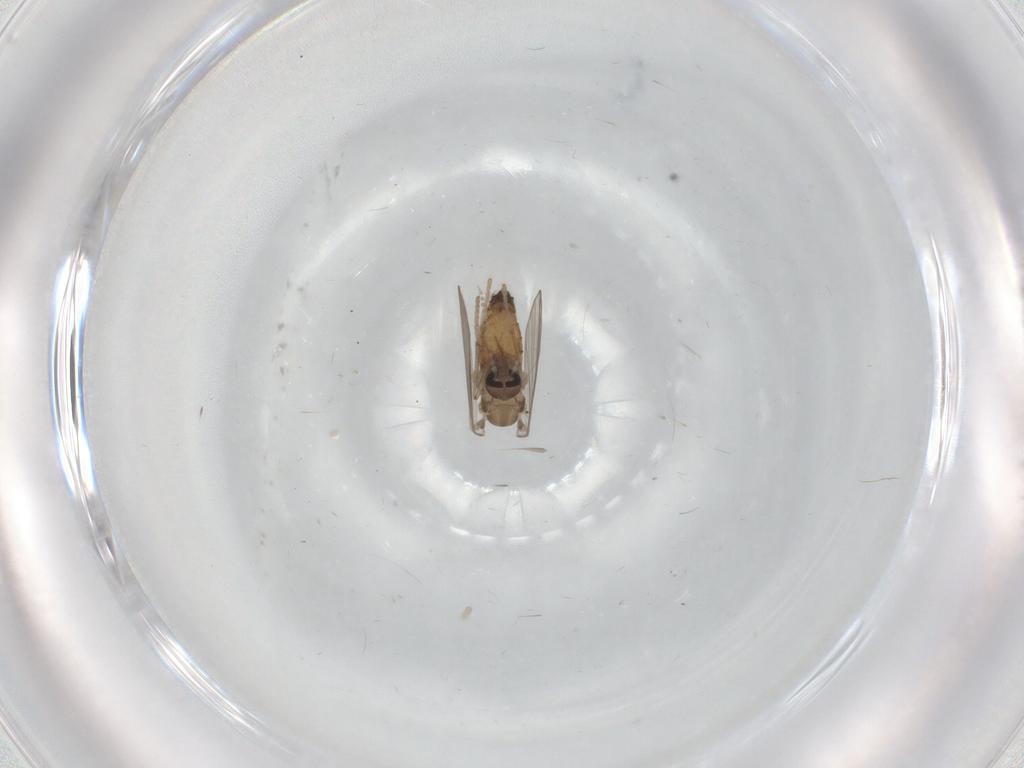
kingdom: Animalia
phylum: Arthropoda
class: Insecta
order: Diptera
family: Psychodidae
